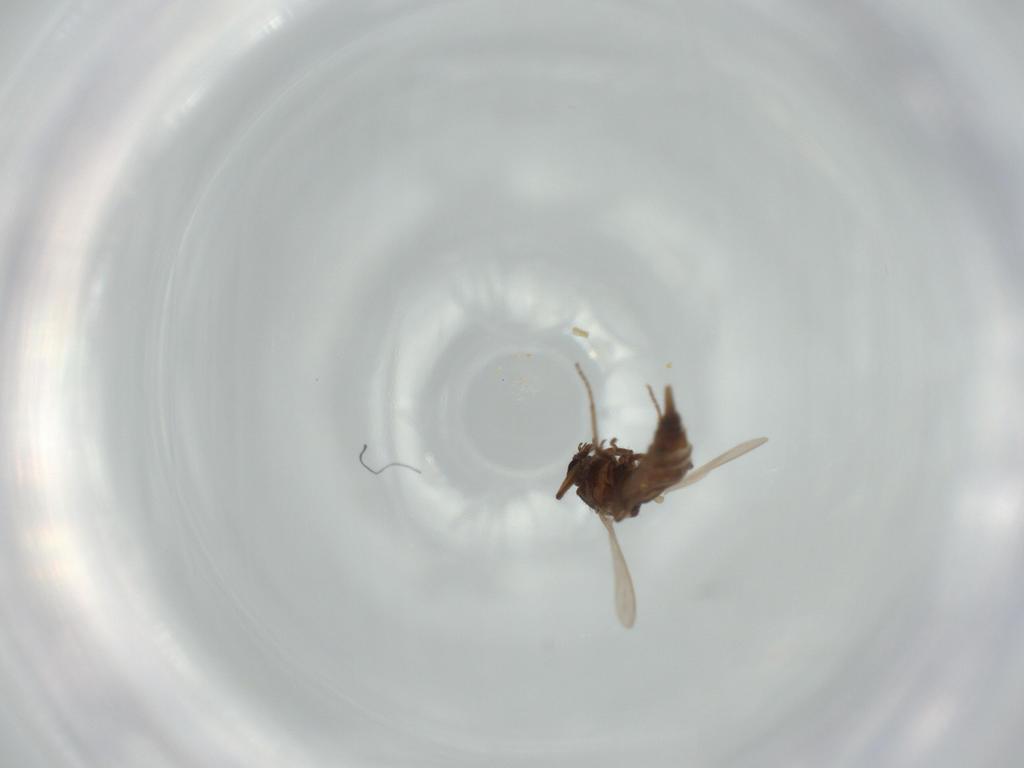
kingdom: Animalia
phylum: Arthropoda
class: Insecta
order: Diptera
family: Ceratopogonidae
